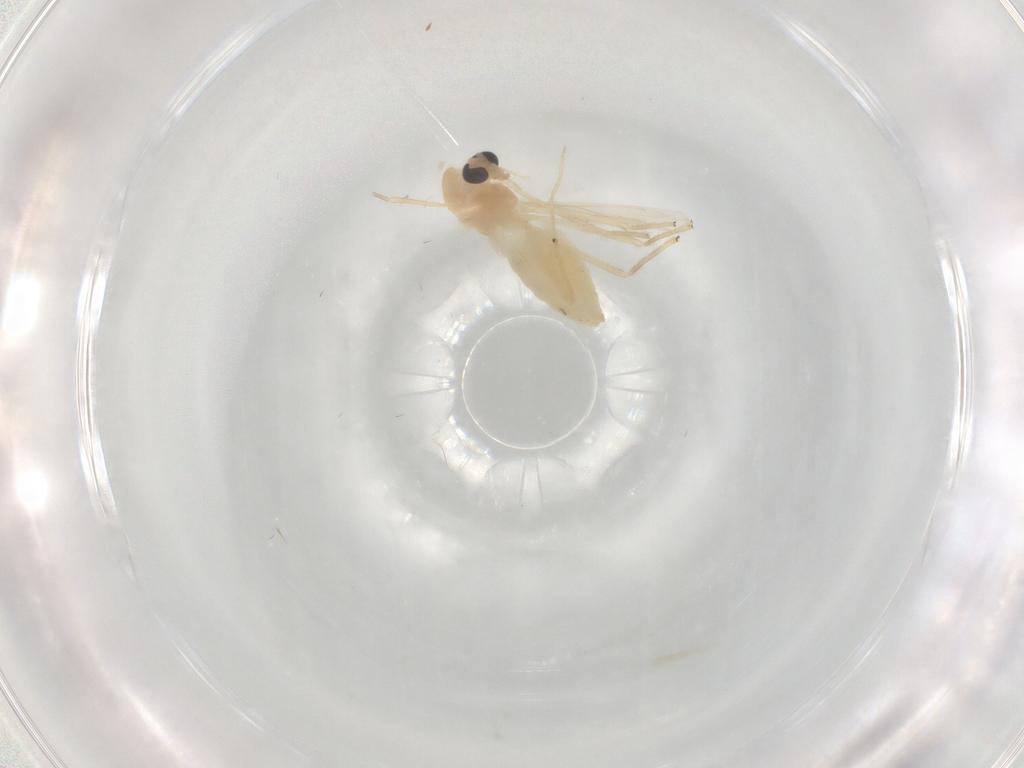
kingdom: Animalia
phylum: Arthropoda
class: Insecta
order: Diptera
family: Chironomidae
